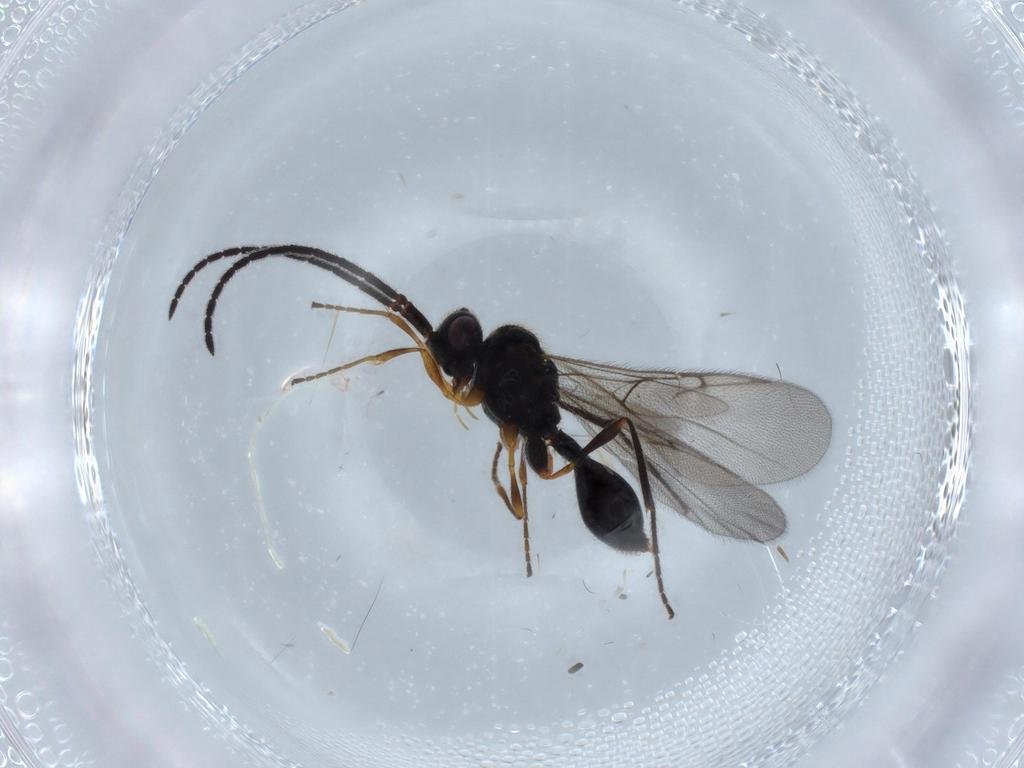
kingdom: Animalia
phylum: Arthropoda
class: Insecta
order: Hymenoptera
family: Diapriidae
